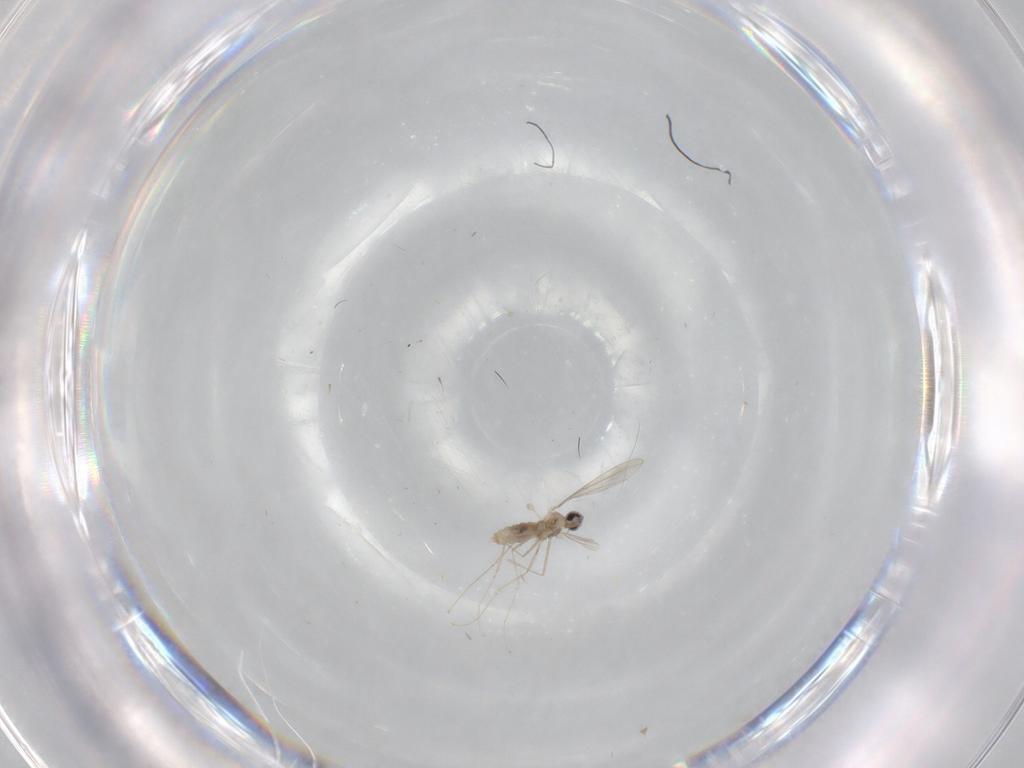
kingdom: Animalia
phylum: Arthropoda
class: Insecta
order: Diptera
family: Cecidomyiidae
